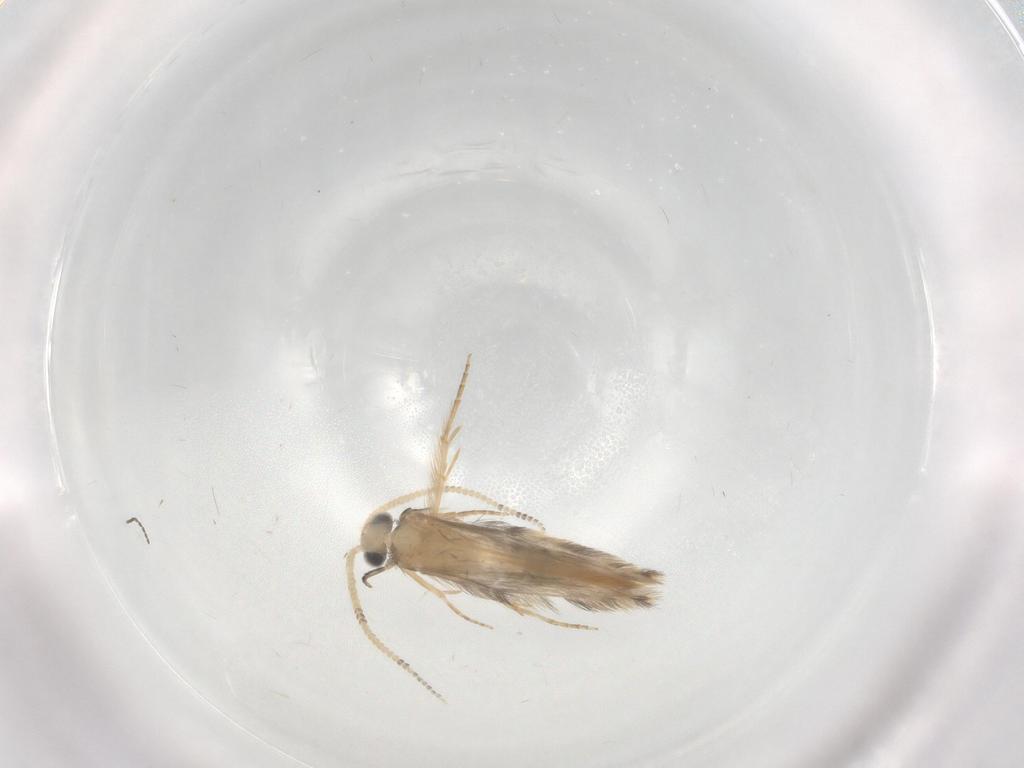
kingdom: Animalia
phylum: Arthropoda
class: Insecta
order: Trichoptera
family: Hydroptilidae
